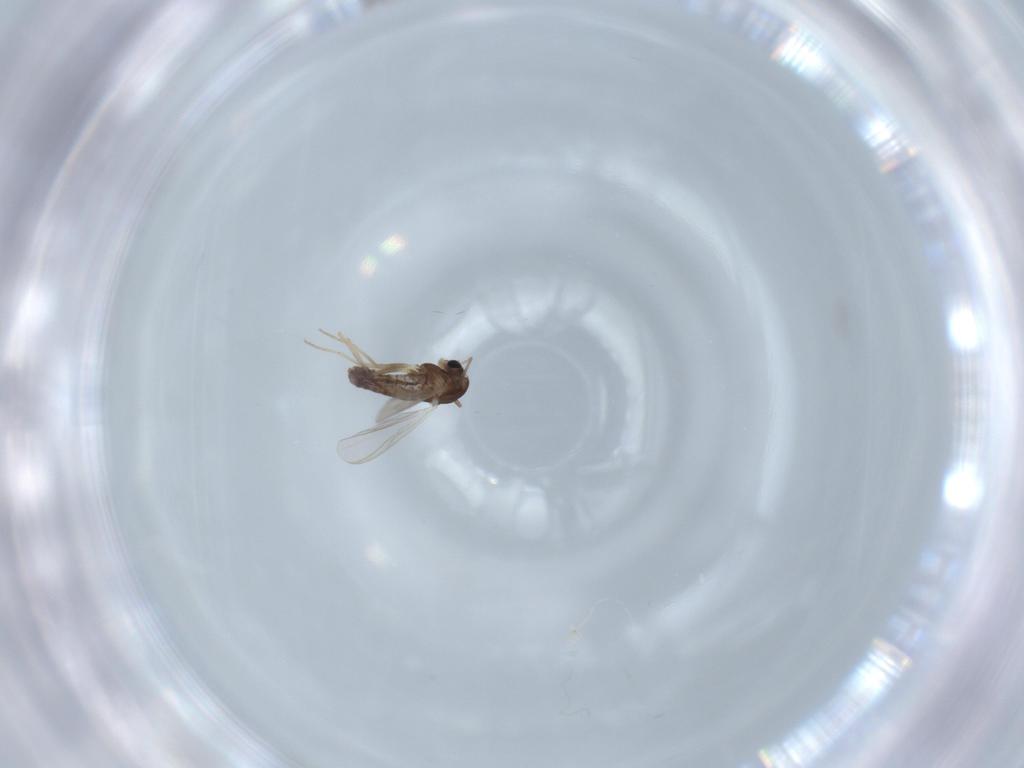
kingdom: Animalia
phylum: Arthropoda
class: Insecta
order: Diptera
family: Chironomidae
